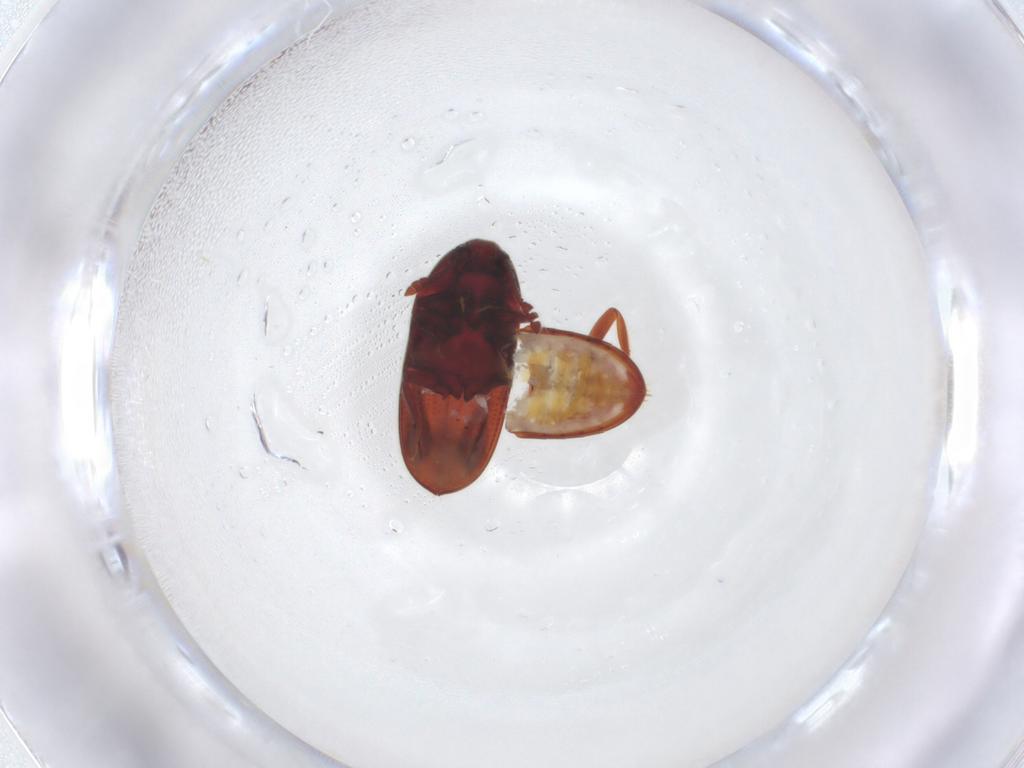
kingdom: Animalia
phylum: Arthropoda
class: Insecta
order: Coleoptera
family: Throscidae
